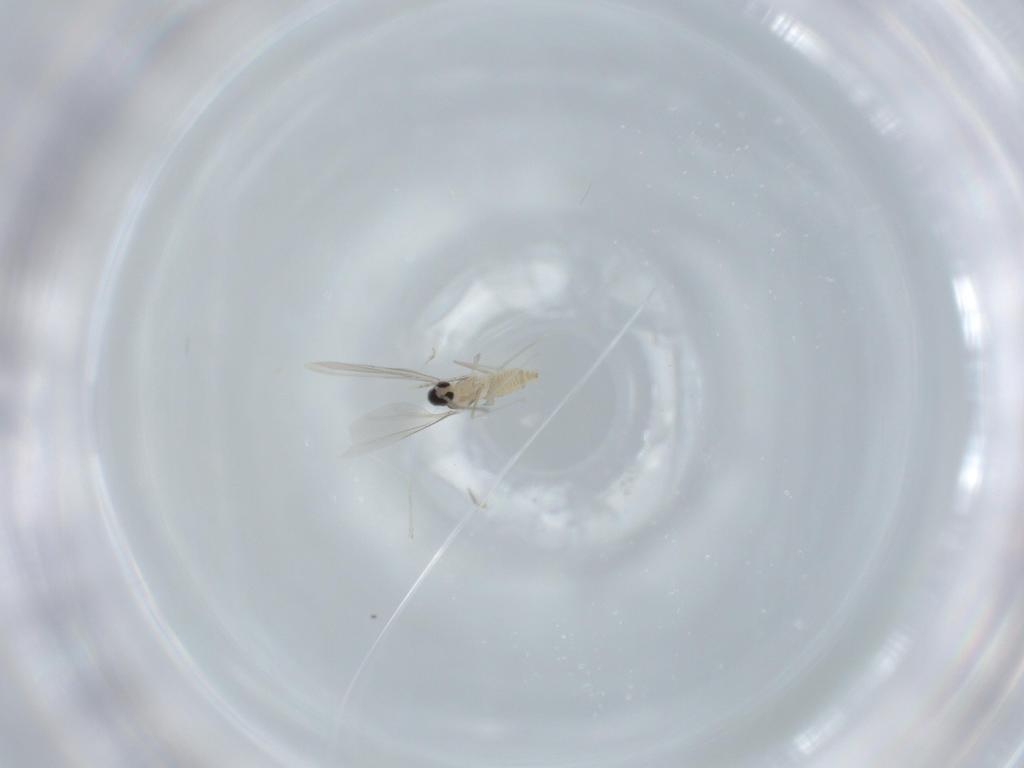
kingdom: Animalia
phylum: Arthropoda
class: Insecta
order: Diptera
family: Cecidomyiidae
